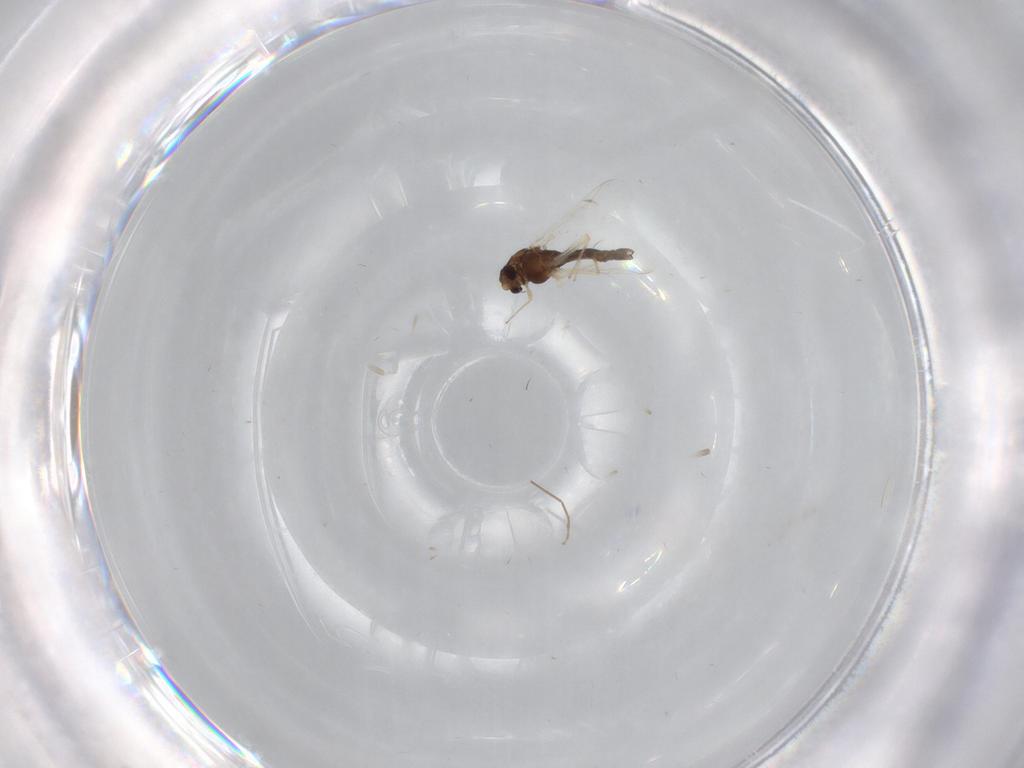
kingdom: Animalia
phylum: Arthropoda
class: Insecta
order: Diptera
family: Chironomidae
